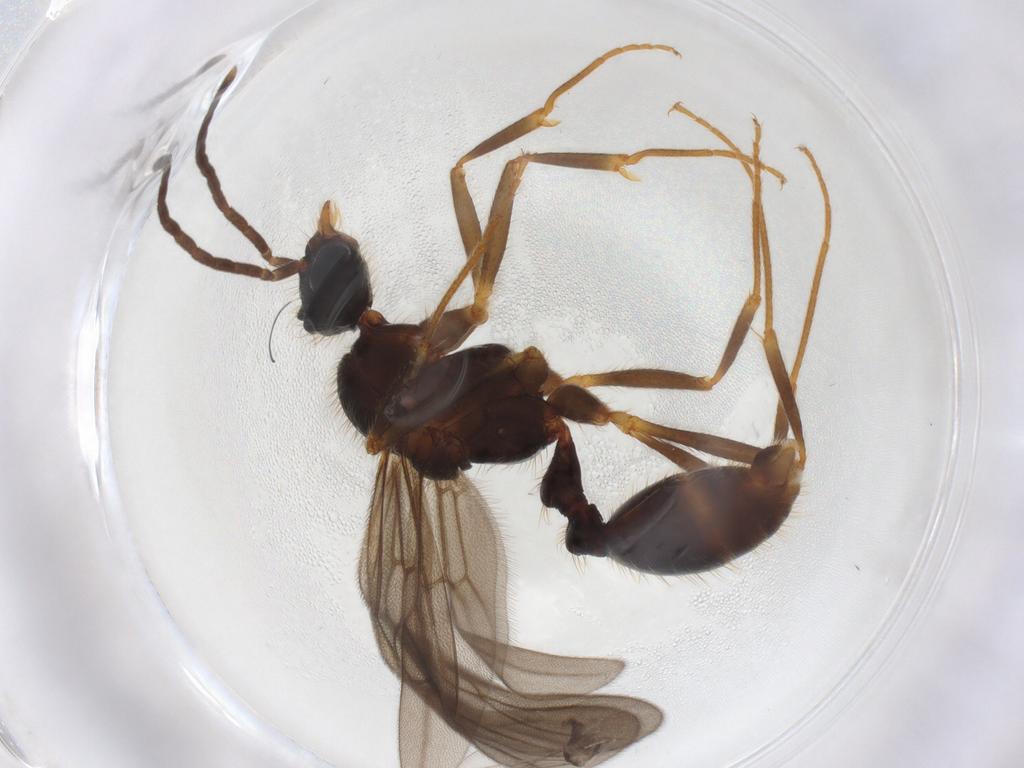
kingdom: Animalia
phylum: Arthropoda
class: Insecta
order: Hymenoptera
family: Formicidae
